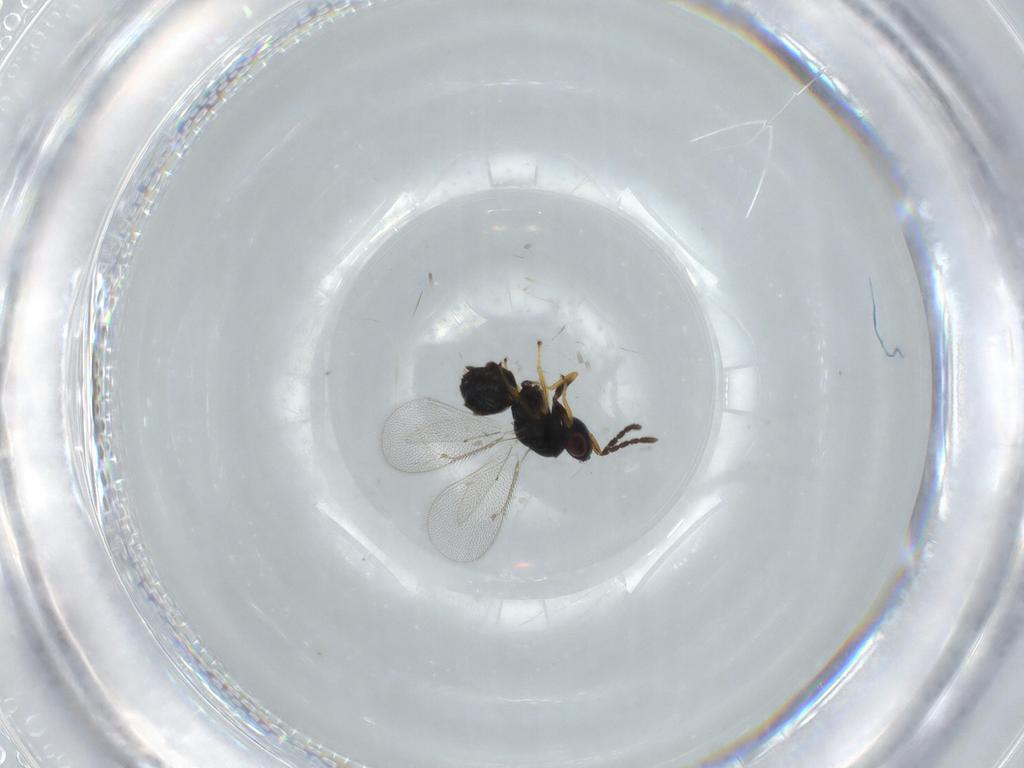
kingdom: Animalia
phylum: Arthropoda
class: Insecta
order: Hymenoptera
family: Eulophidae
